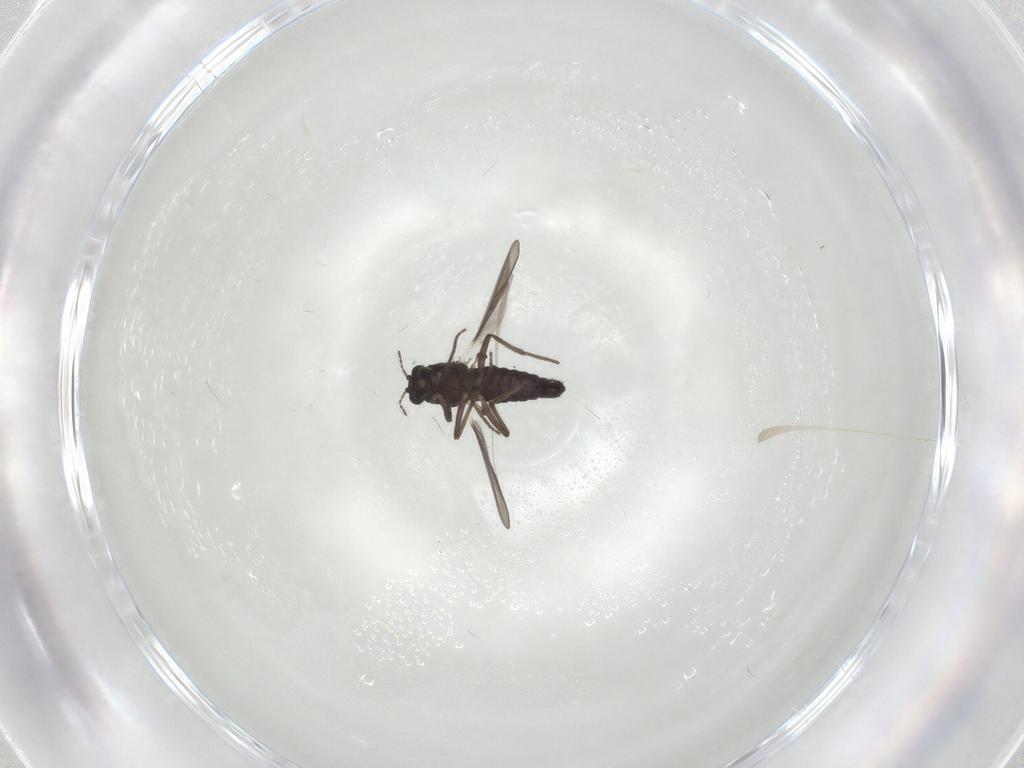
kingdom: Animalia
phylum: Arthropoda
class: Insecta
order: Diptera
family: Chironomidae
